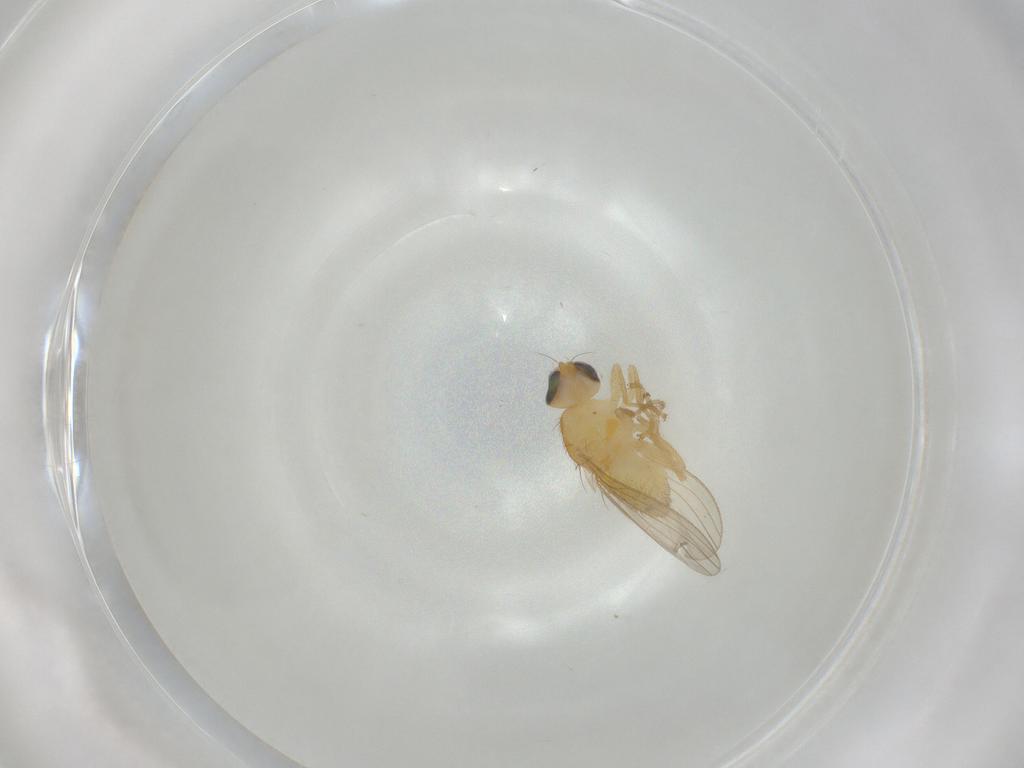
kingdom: Animalia
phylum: Arthropoda
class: Insecta
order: Diptera
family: Chyromyidae
